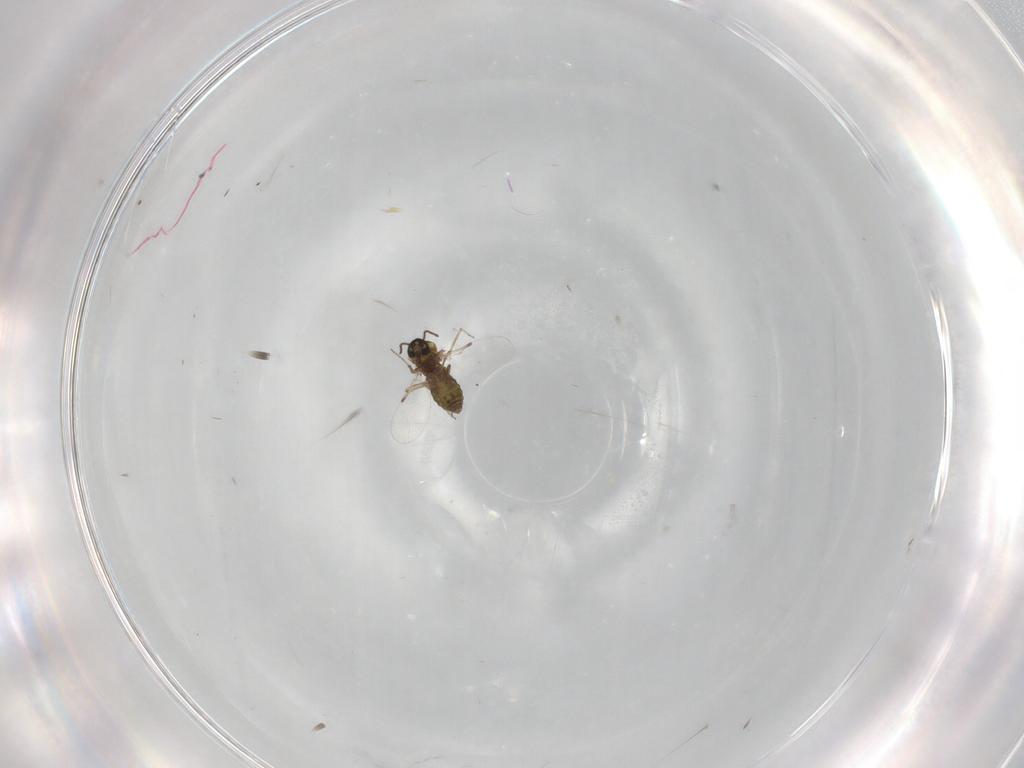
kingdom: Animalia
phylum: Arthropoda
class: Insecta
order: Diptera
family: Ceratopogonidae
